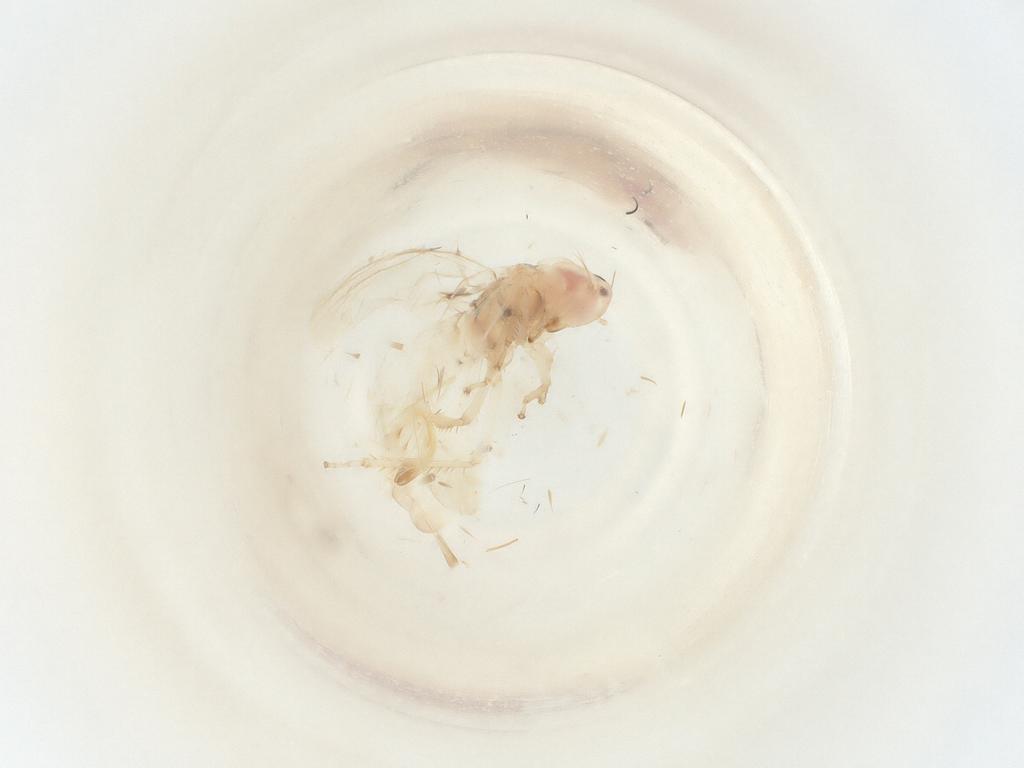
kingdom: Animalia
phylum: Arthropoda
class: Insecta
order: Hemiptera
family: Cicadellidae
